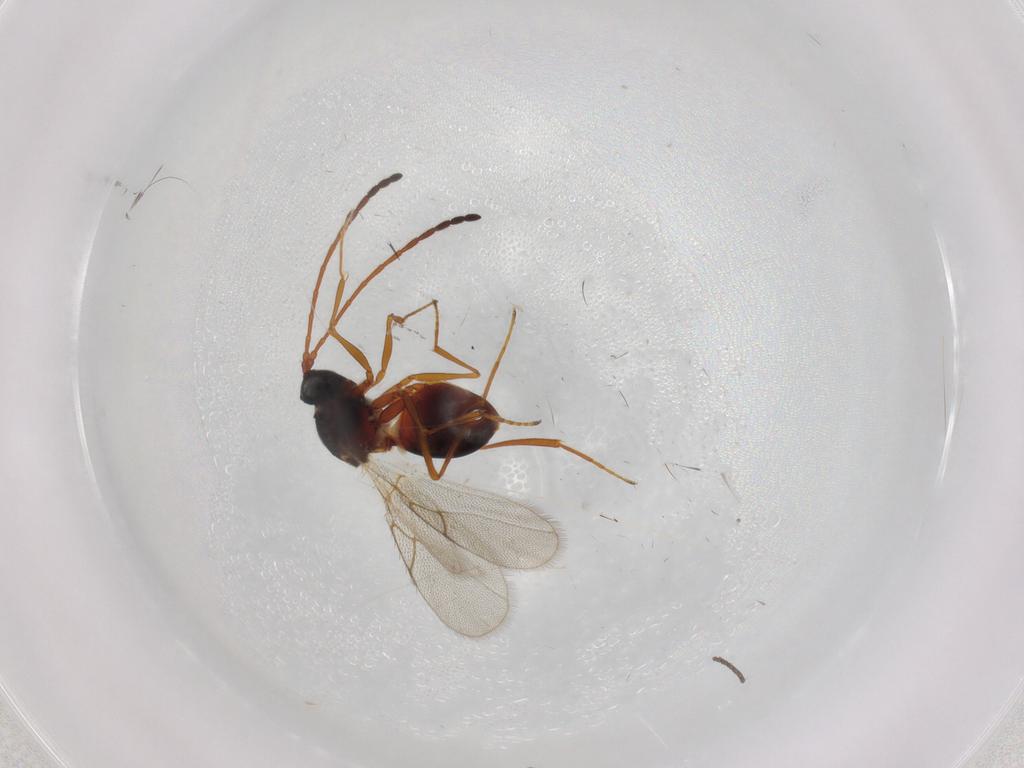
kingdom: Animalia
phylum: Arthropoda
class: Insecta
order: Hymenoptera
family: Figitidae
